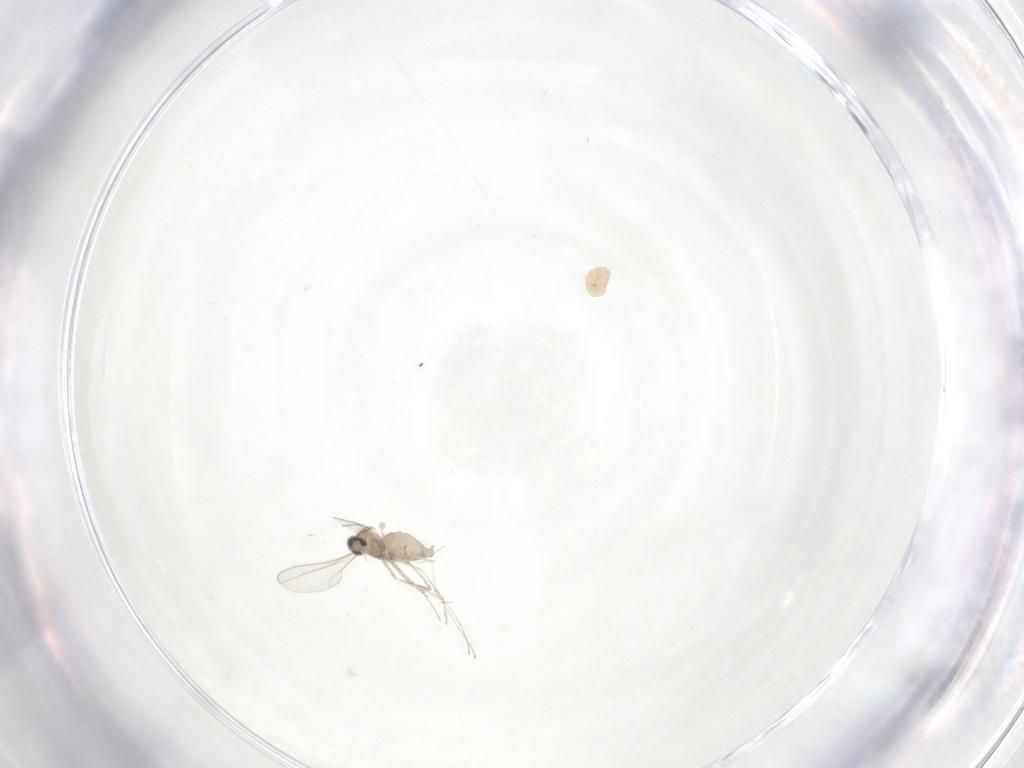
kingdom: Animalia
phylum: Arthropoda
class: Insecta
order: Diptera
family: Cecidomyiidae
